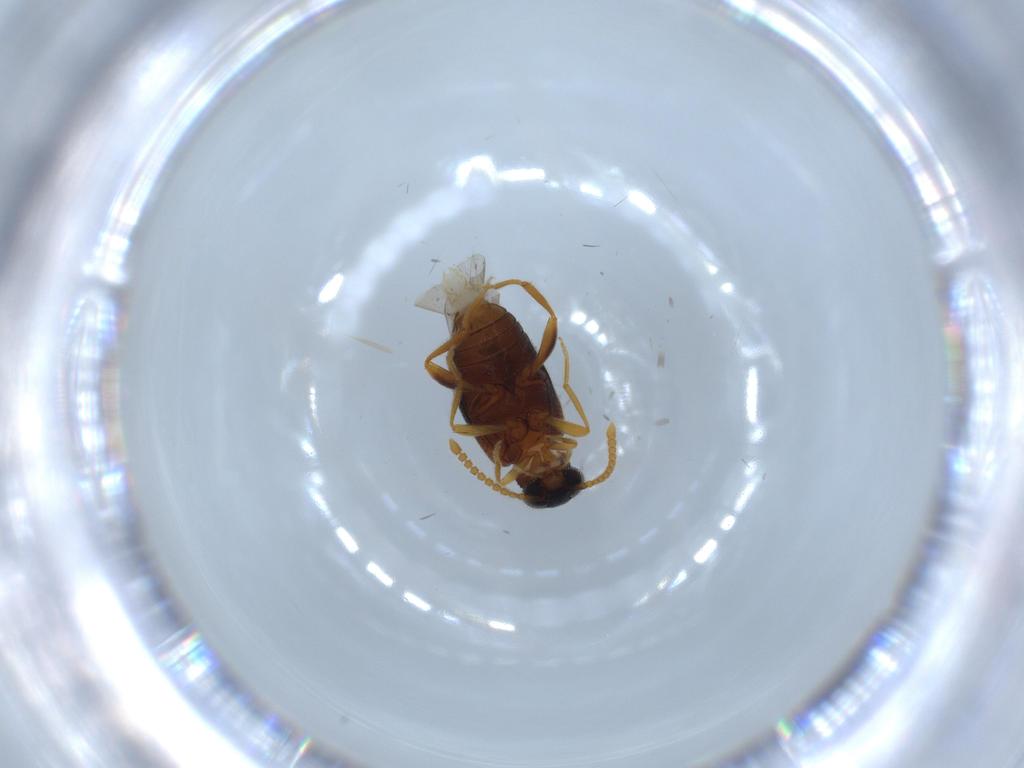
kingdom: Animalia
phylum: Arthropoda
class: Insecta
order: Coleoptera
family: Aderidae
